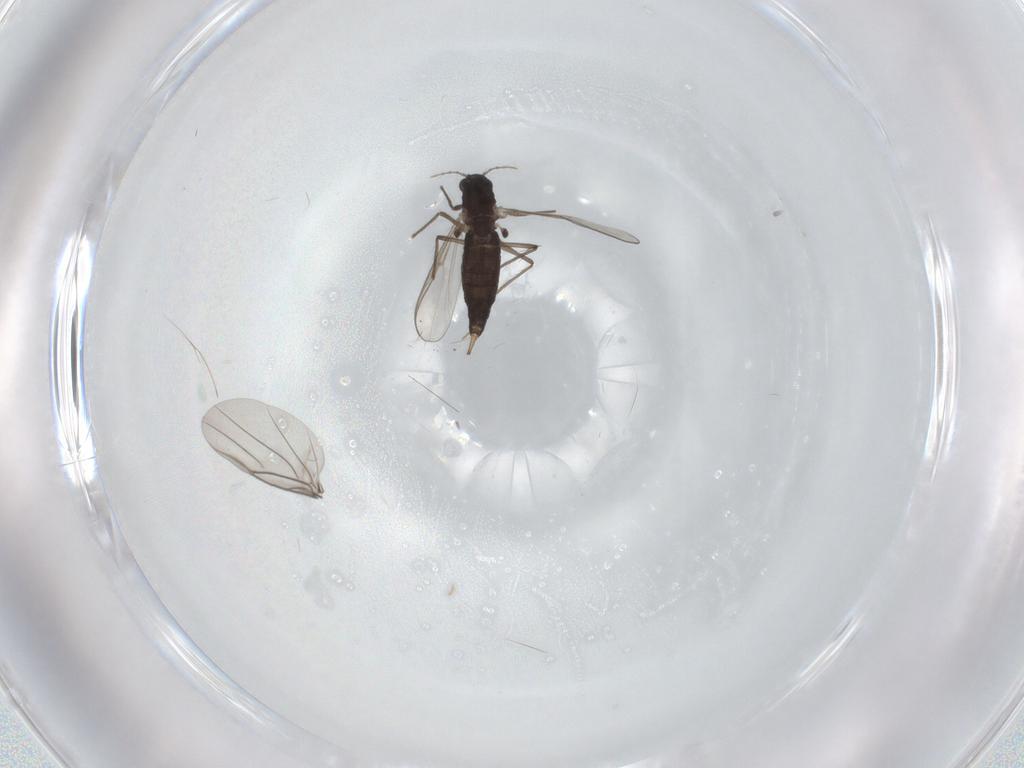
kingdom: Animalia
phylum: Arthropoda
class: Insecta
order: Diptera
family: Chironomidae
